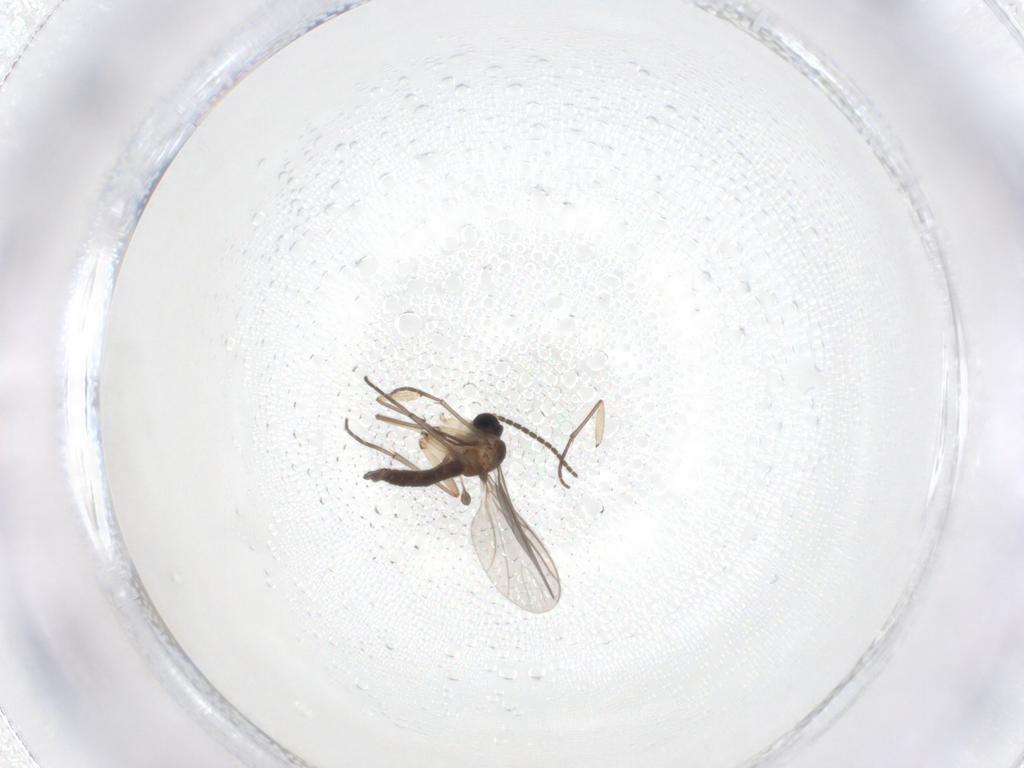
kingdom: Animalia
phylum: Arthropoda
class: Insecta
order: Diptera
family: Sciaridae
